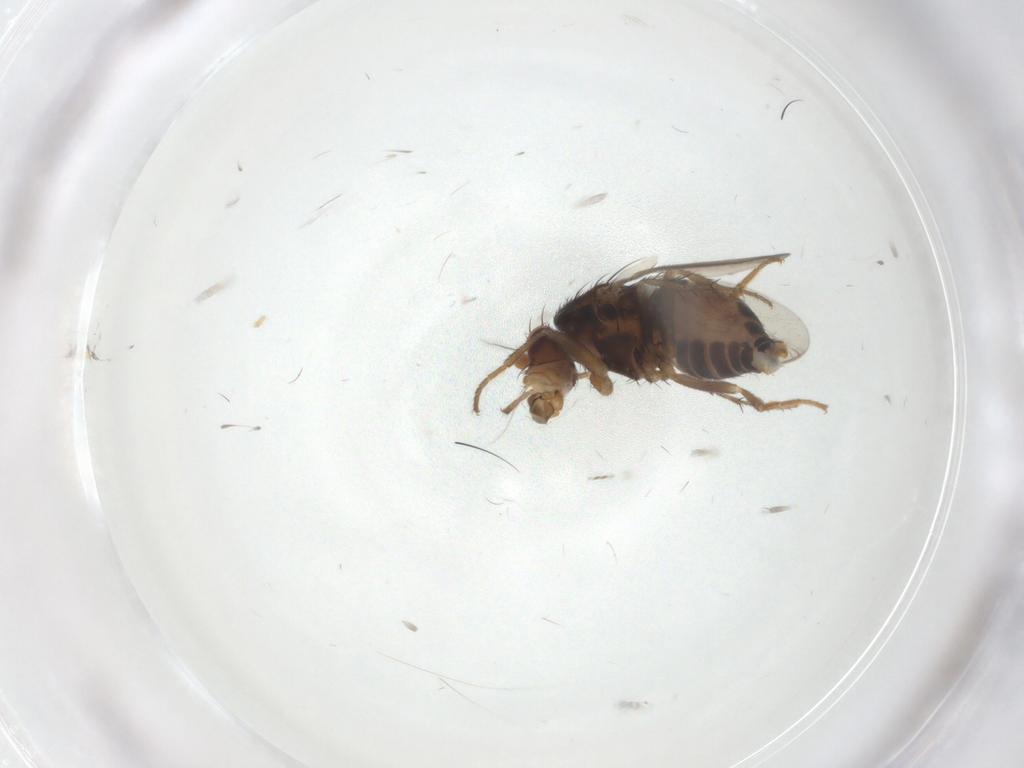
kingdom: Animalia
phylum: Arthropoda
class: Insecta
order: Diptera
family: Sphaeroceridae
